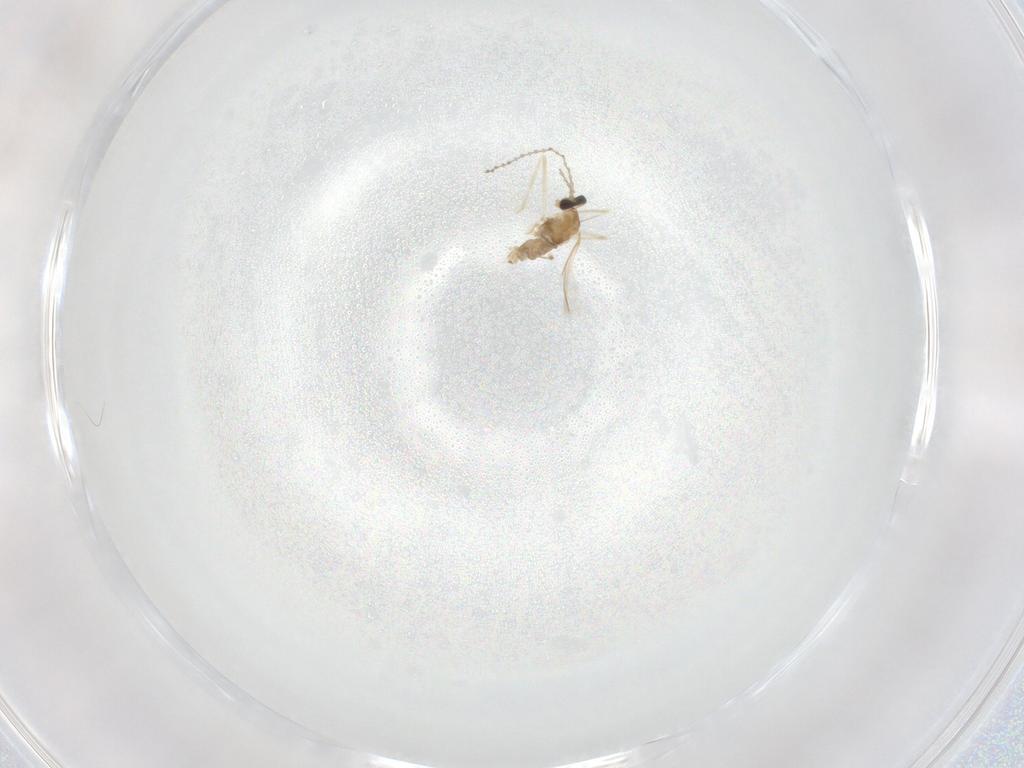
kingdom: Animalia
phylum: Arthropoda
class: Insecta
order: Diptera
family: Cecidomyiidae
